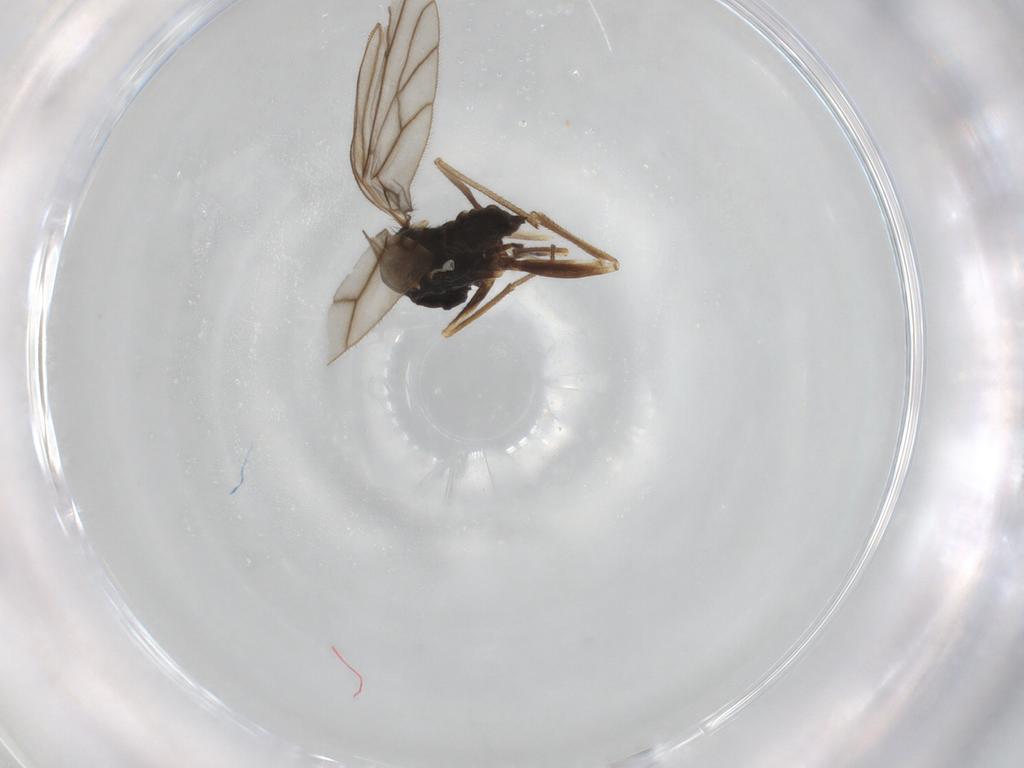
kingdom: Animalia
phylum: Arthropoda
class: Insecta
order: Diptera
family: Empididae
